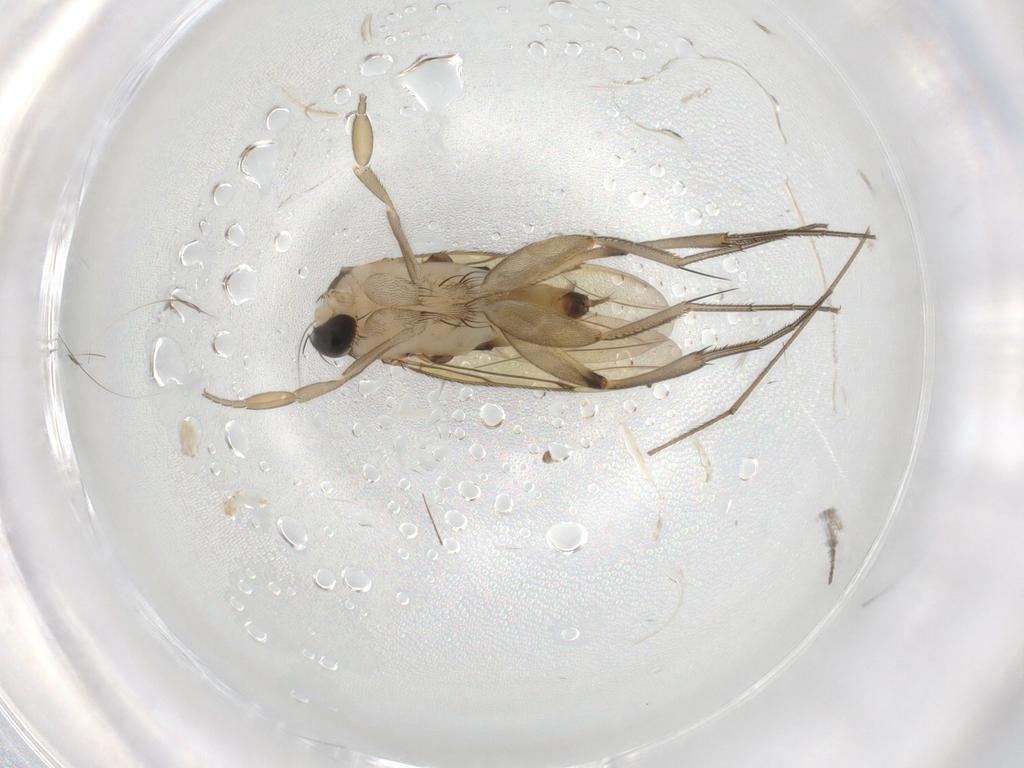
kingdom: Animalia
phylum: Arthropoda
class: Insecta
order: Diptera
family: Phoridae
